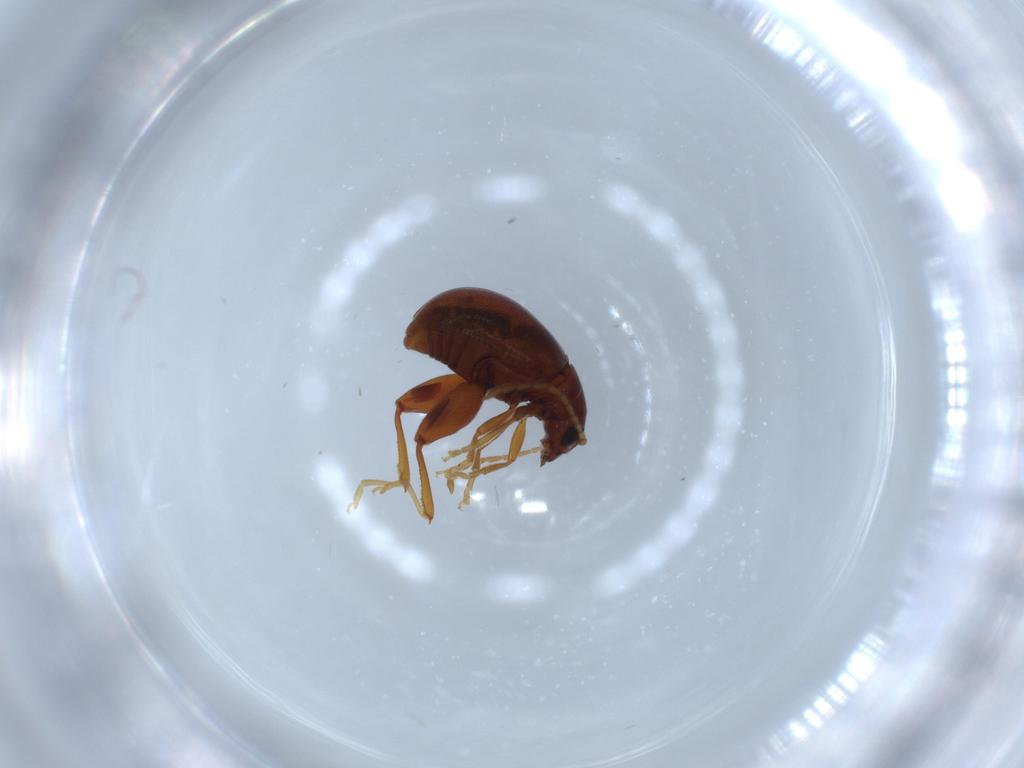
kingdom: Animalia
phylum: Arthropoda
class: Insecta
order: Coleoptera
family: Chrysomelidae
